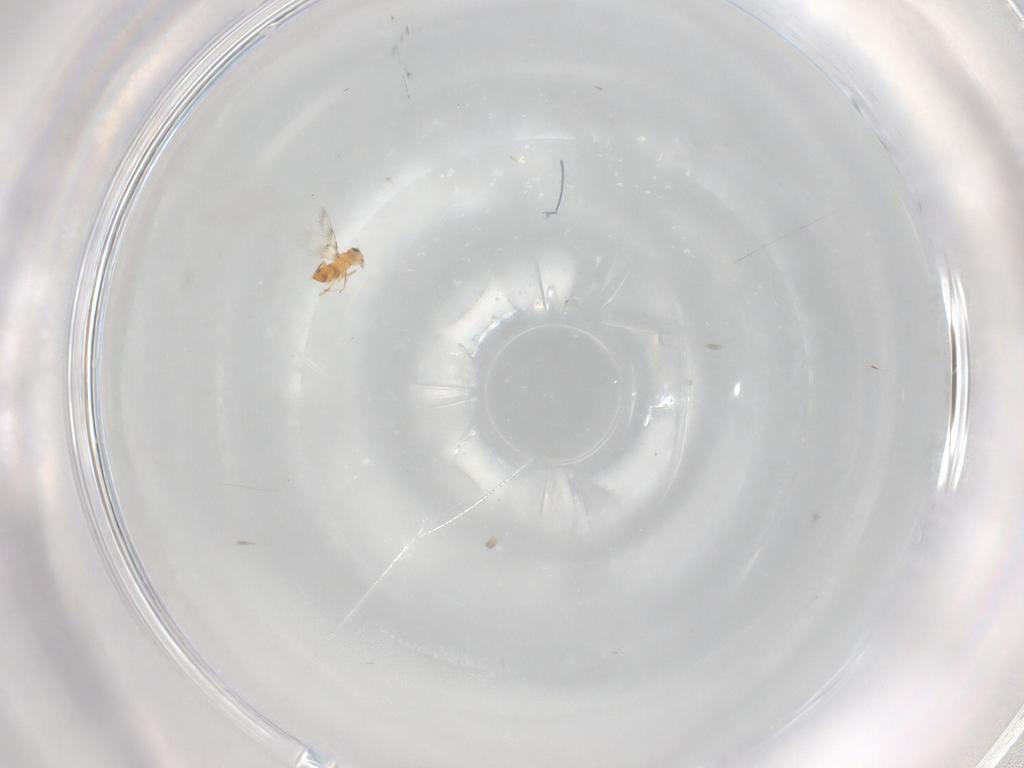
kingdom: Animalia
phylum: Arthropoda
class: Insecta
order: Hymenoptera
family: Aphelinidae
